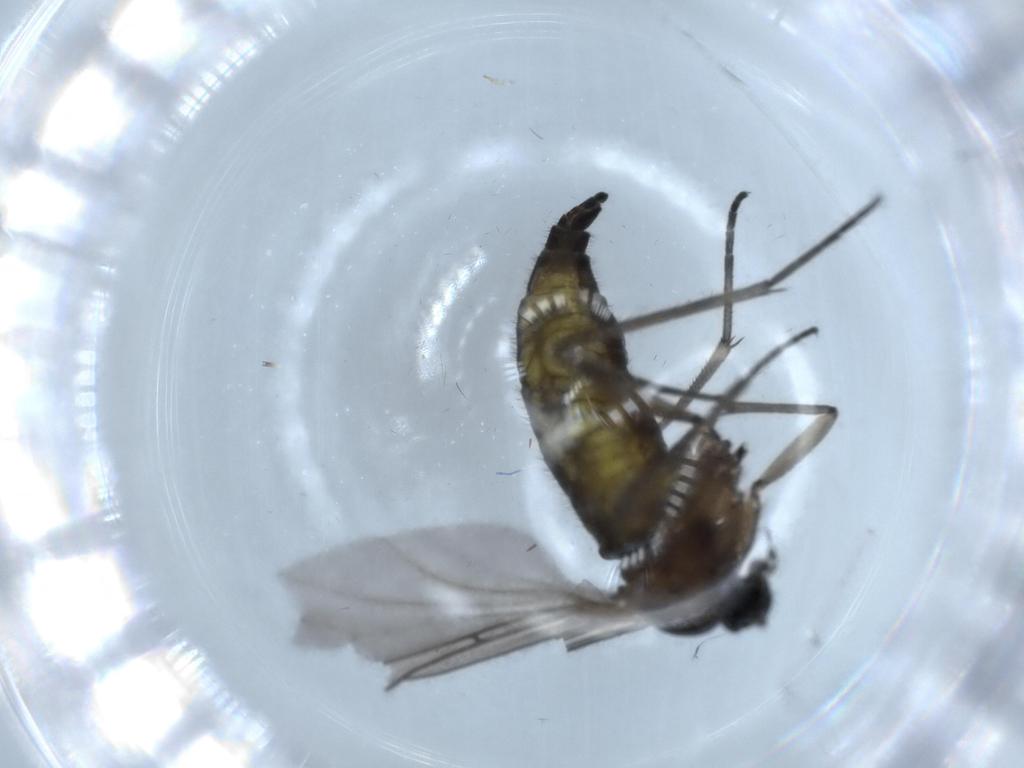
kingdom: Animalia
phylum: Arthropoda
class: Insecta
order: Diptera
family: Sciaridae
